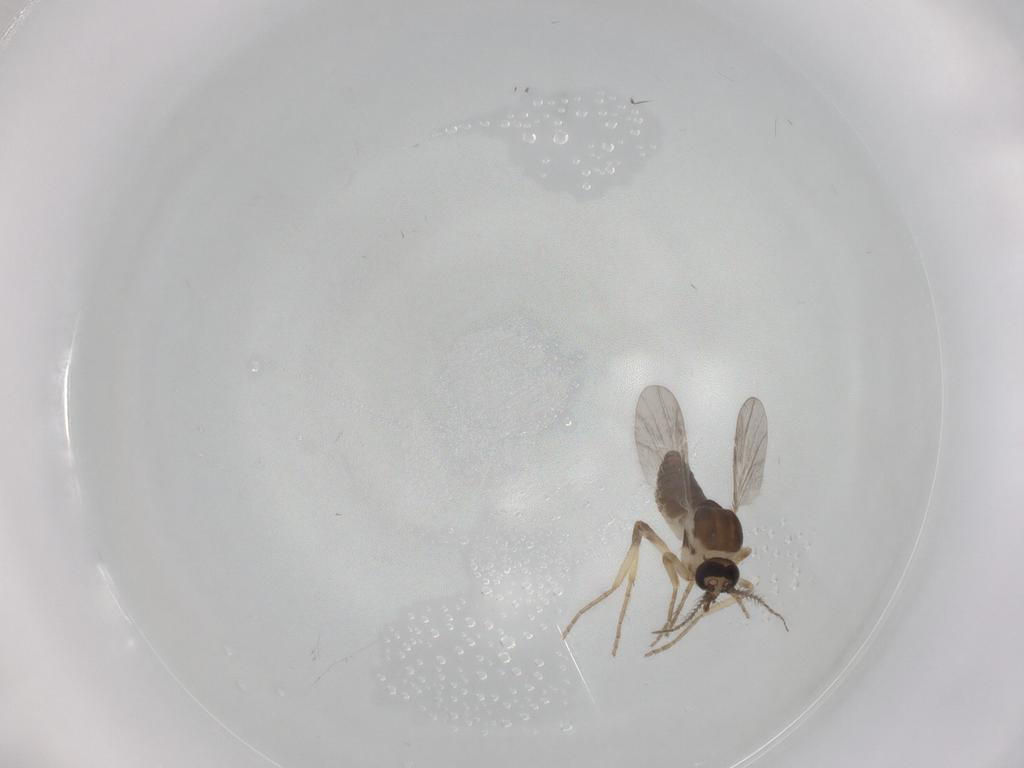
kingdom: Animalia
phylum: Arthropoda
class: Insecta
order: Diptera
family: Ceratopogonidae
